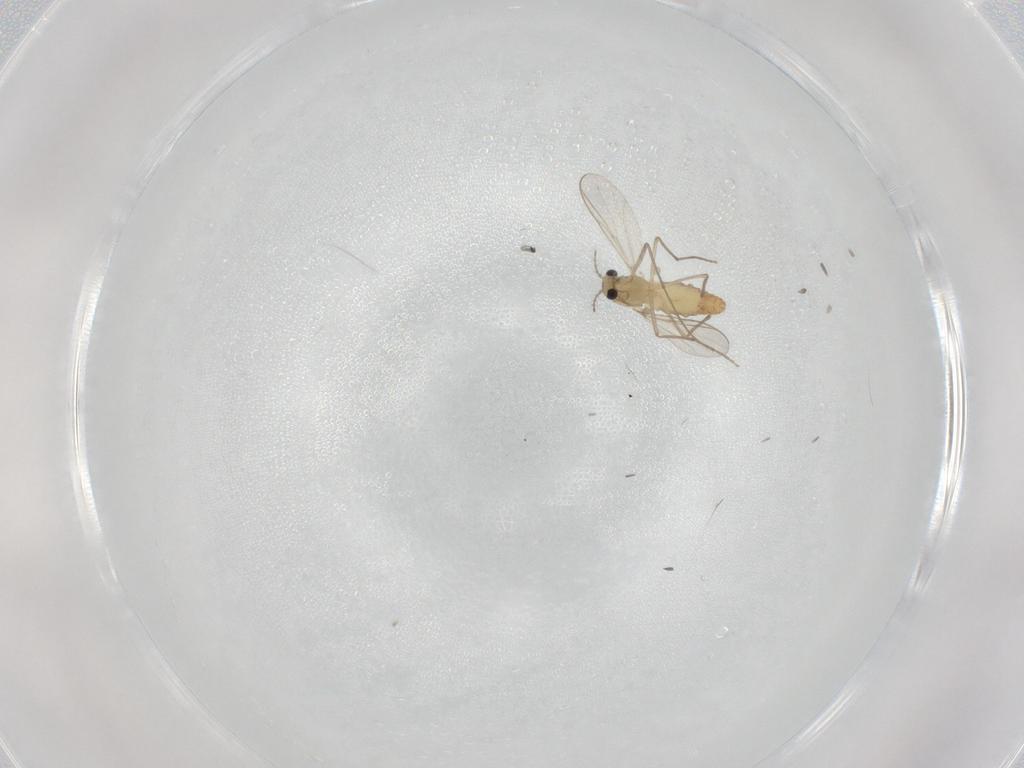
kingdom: Animalia
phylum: Arthropoda
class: Insecta
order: Diptera
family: Chironomidae
